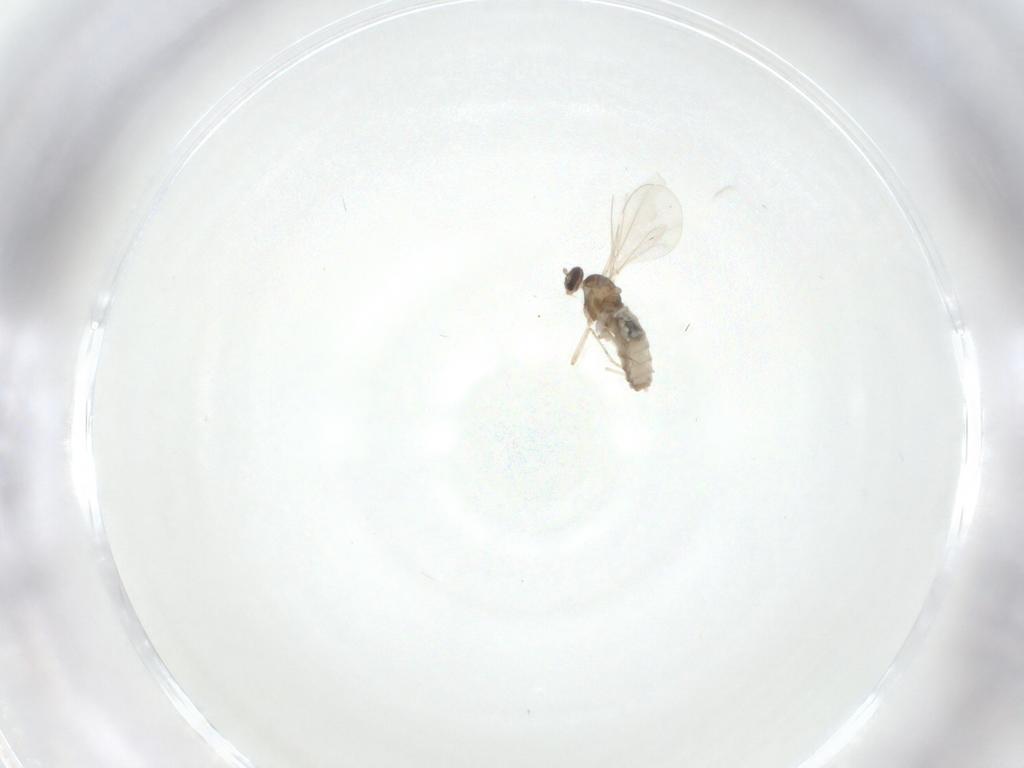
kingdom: Animalia
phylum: Arthropoda
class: Insecta
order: Diptera
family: Cecidomyiidae
